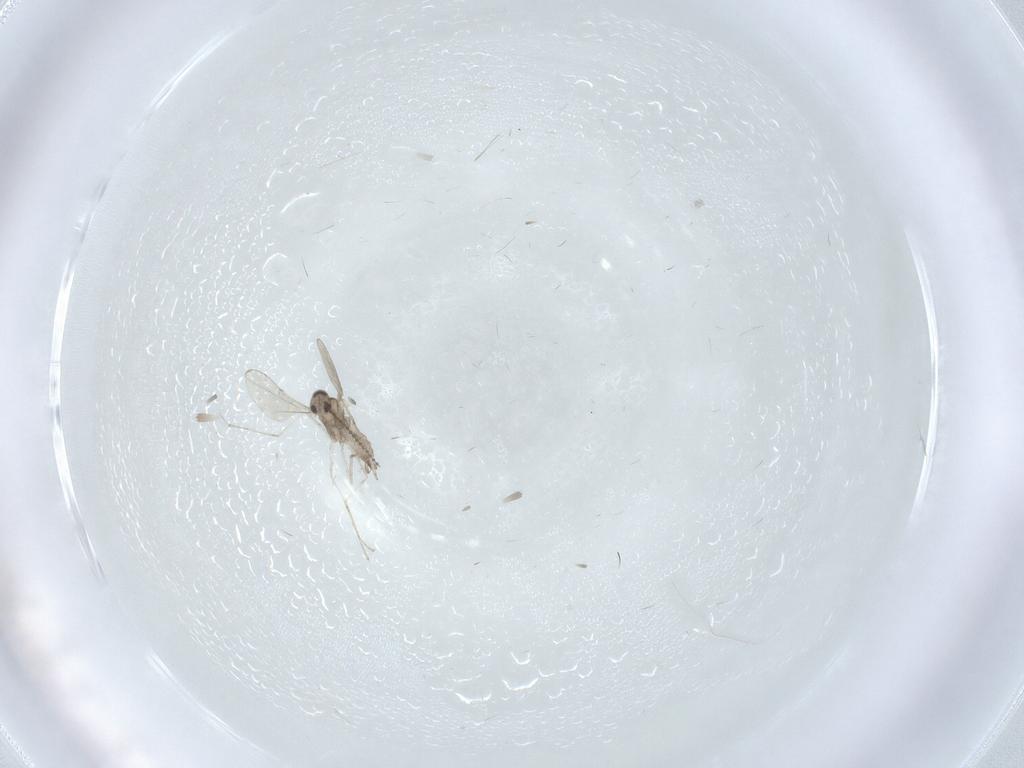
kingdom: Animalia
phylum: Arthropoda
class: Insecta
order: Diptera
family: Cecidomyiidae
